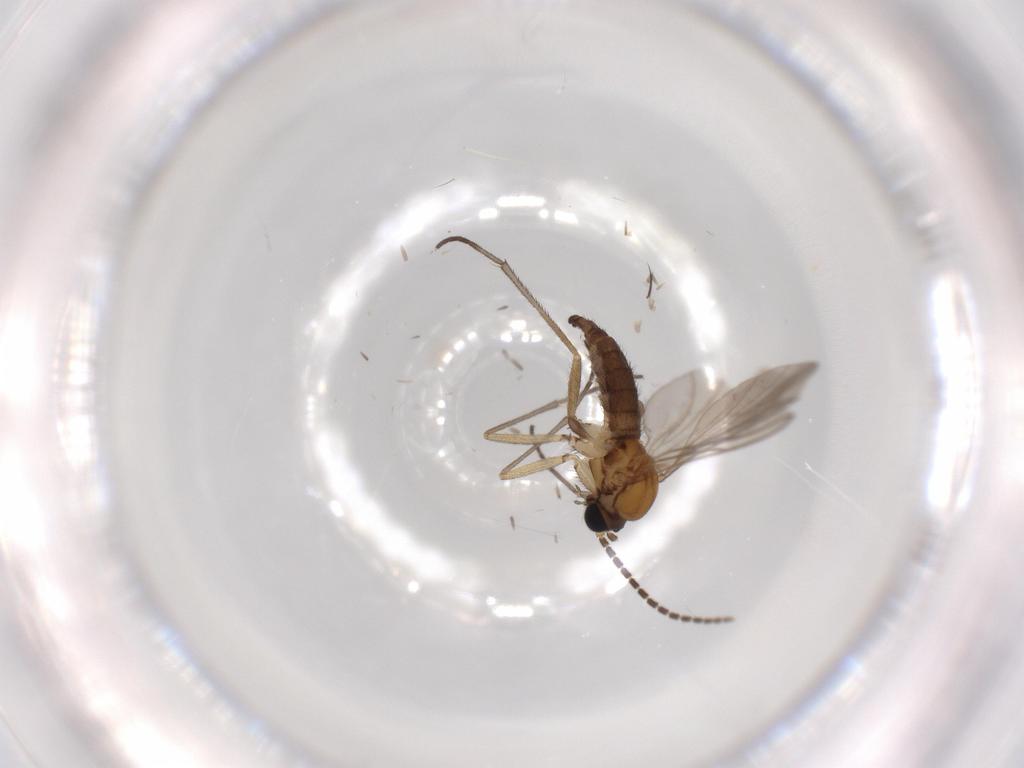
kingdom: Animalia
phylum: Arthropoda
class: Insecta
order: Diptera
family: Sciaridae
